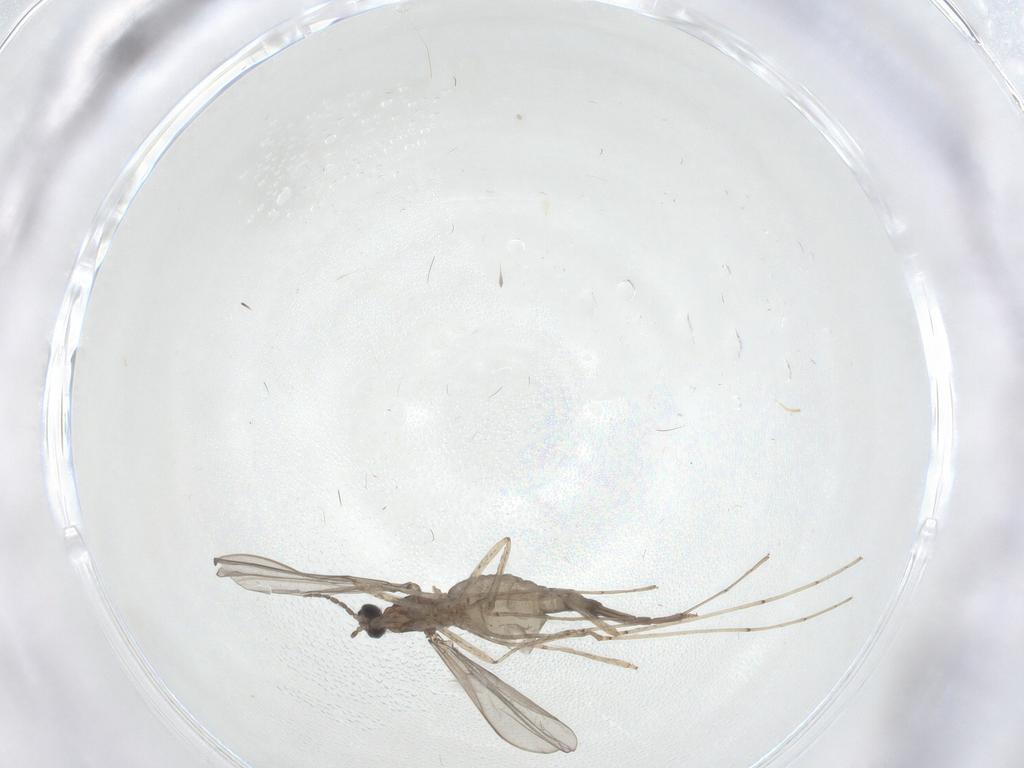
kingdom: Animalia
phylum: Arthropoda
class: Insecta
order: Diptera
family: Cecidomyiidae
